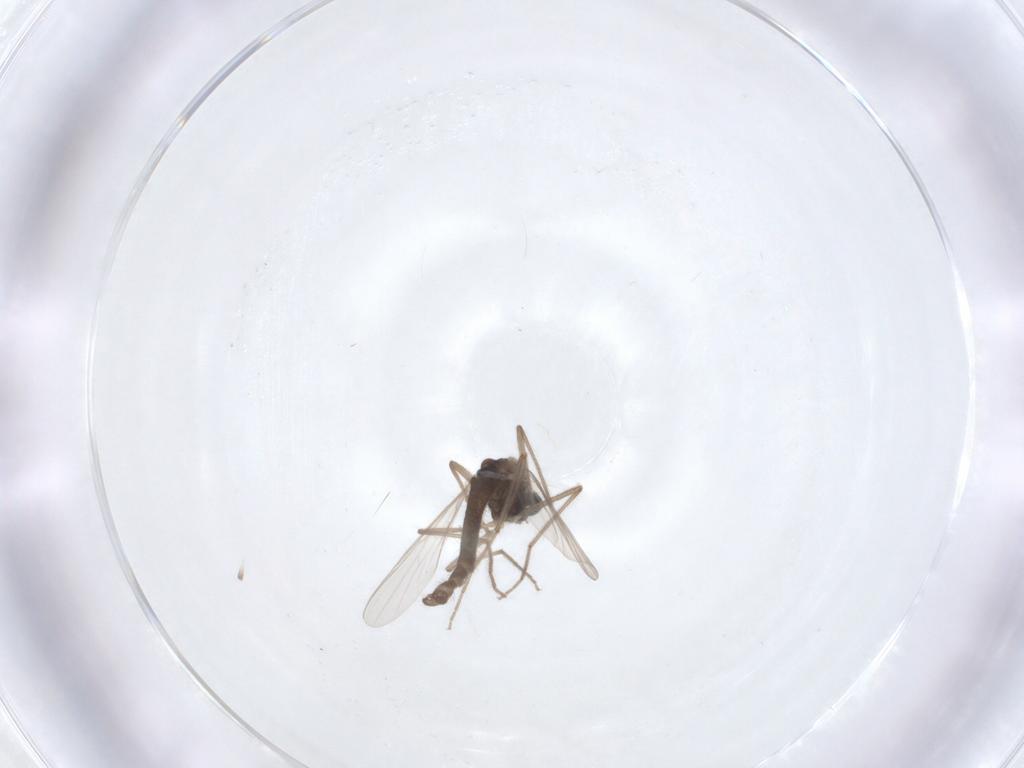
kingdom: Animalia
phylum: Arthropoda
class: Insecta
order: Diptera
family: Chironomidae
